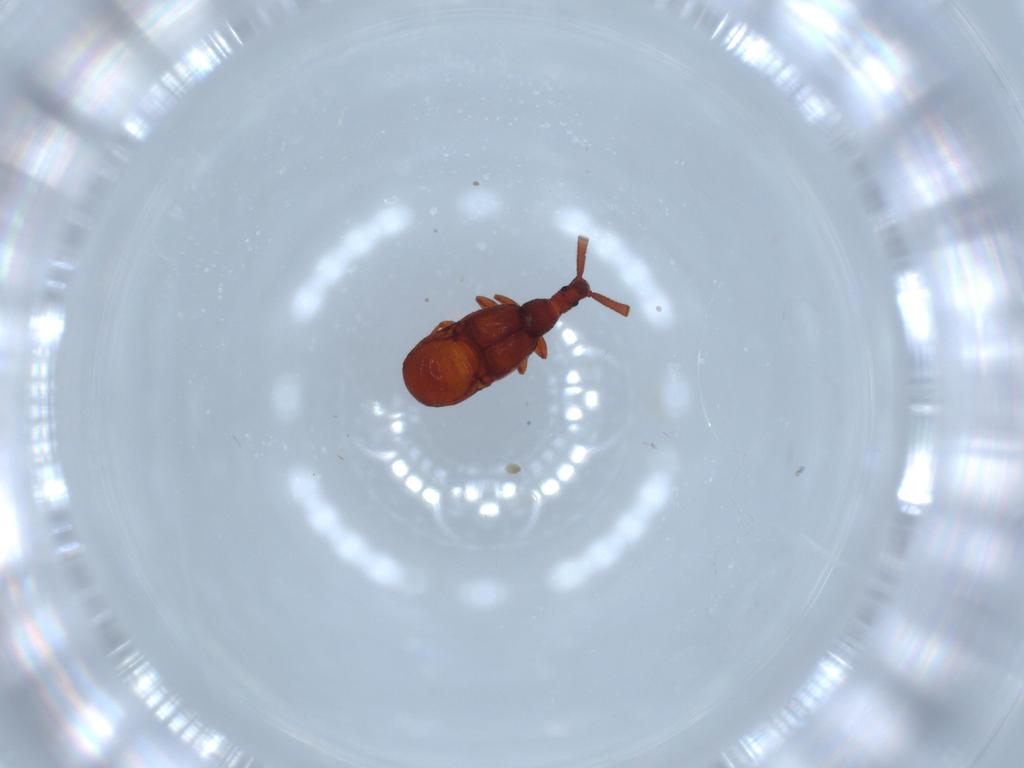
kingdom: Animalia
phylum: Arthropoda
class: Insecta
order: Coleoptera
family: Staphylinidae
